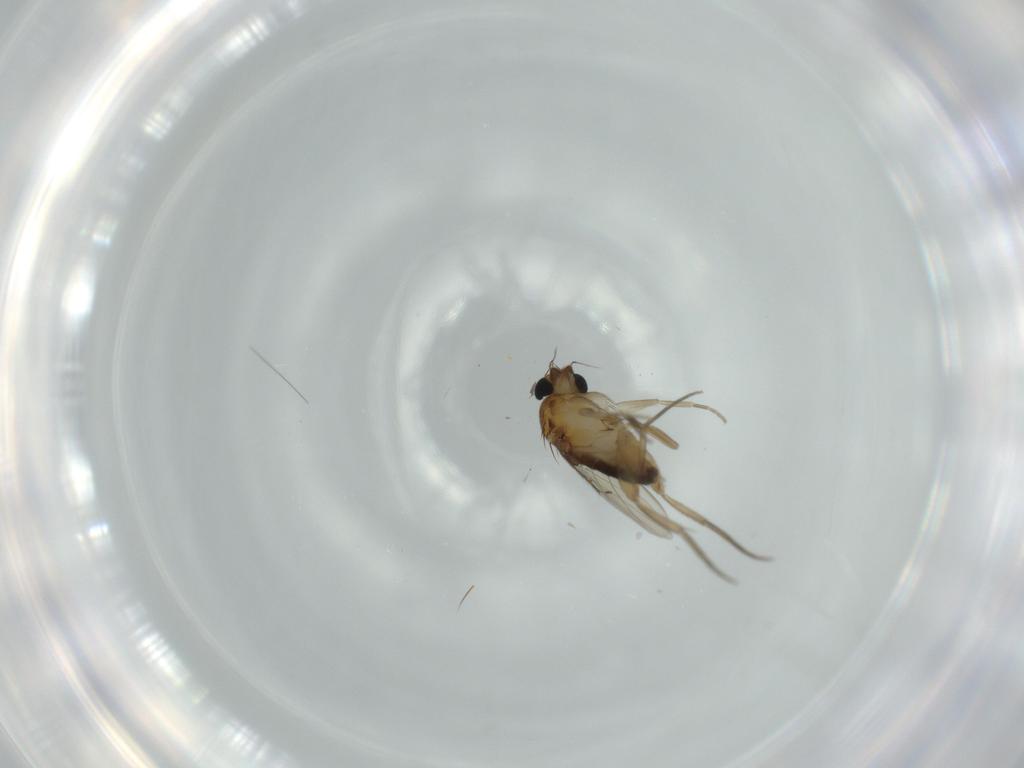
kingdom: Animalia
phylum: Arthropoda
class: Insecta
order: Diptera
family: Phoridae
